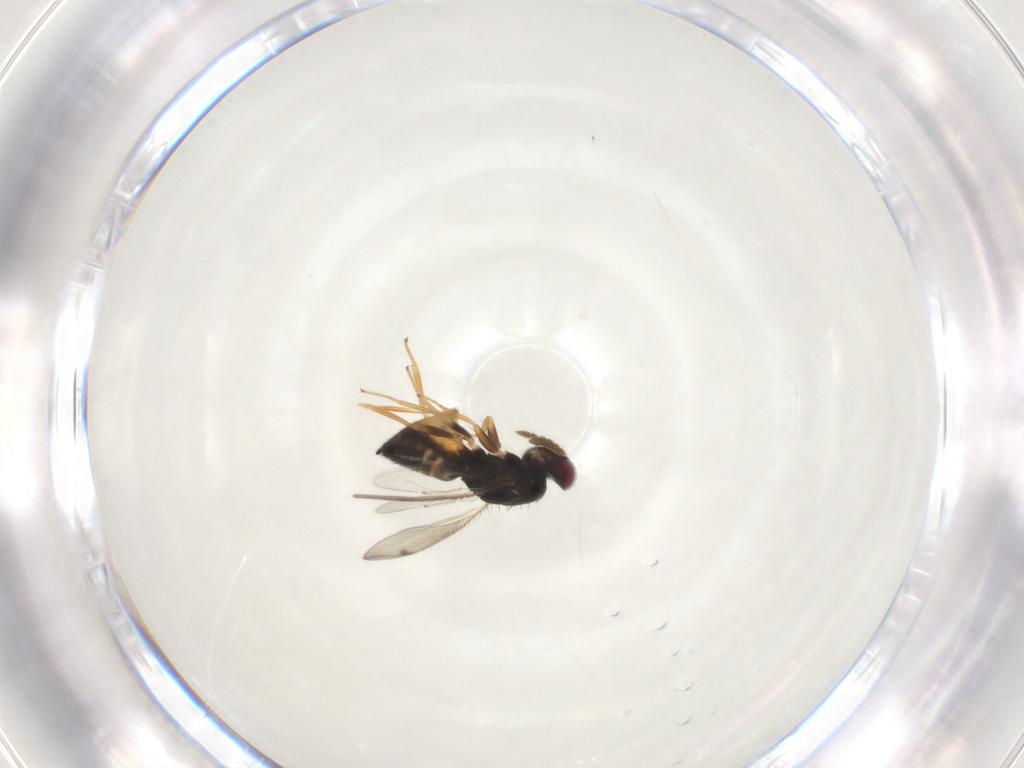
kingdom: Animalia
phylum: Arthropoda
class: Insecta
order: Hymenoptera
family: Eulophidae
